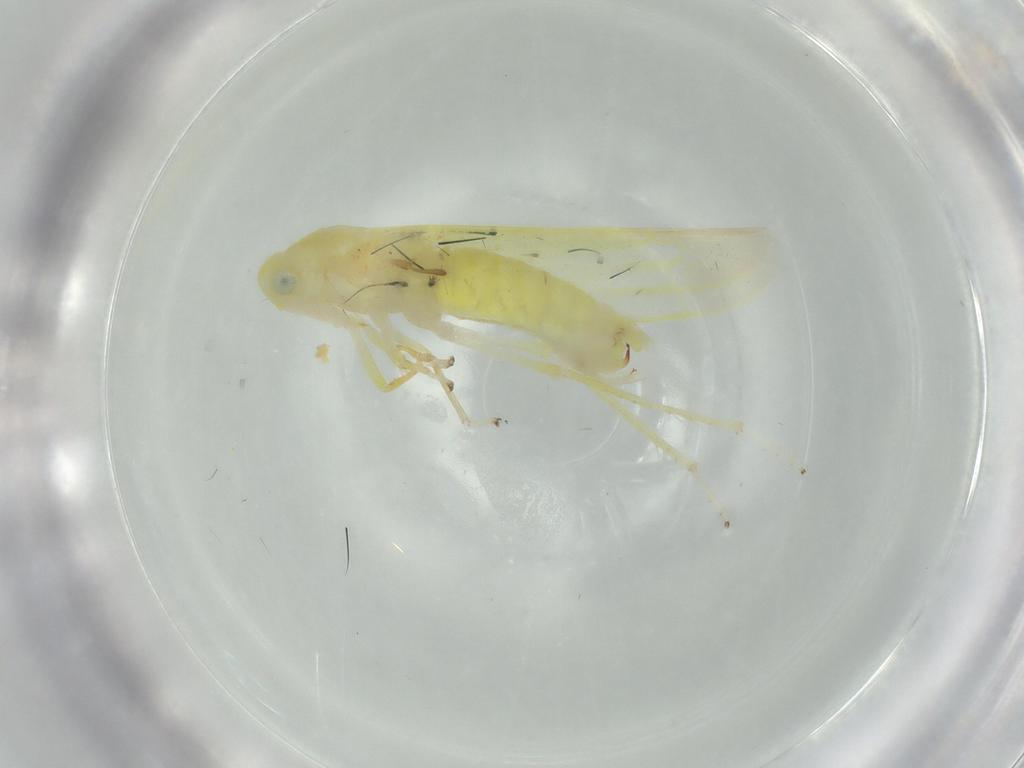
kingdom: Animalia
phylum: Arthropoda
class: Insecta
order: Hemiptera
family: Cicadellidae
